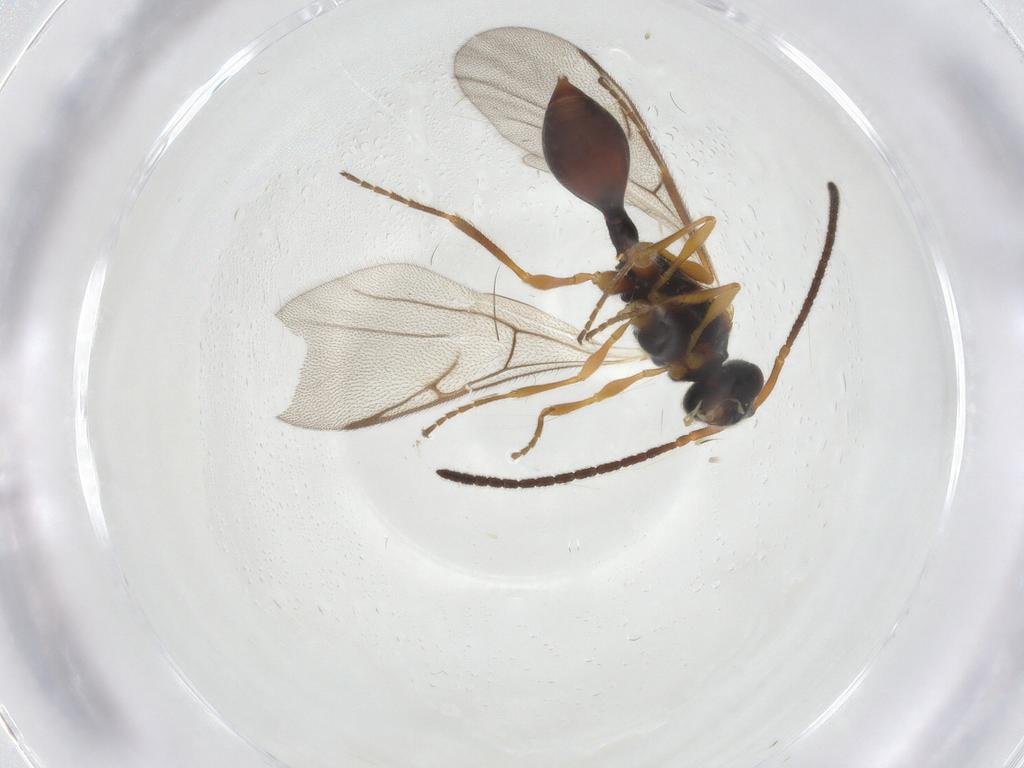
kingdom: Animalia
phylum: Arthropoda
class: Insecta
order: Hymenoptera
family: Diapriidae
